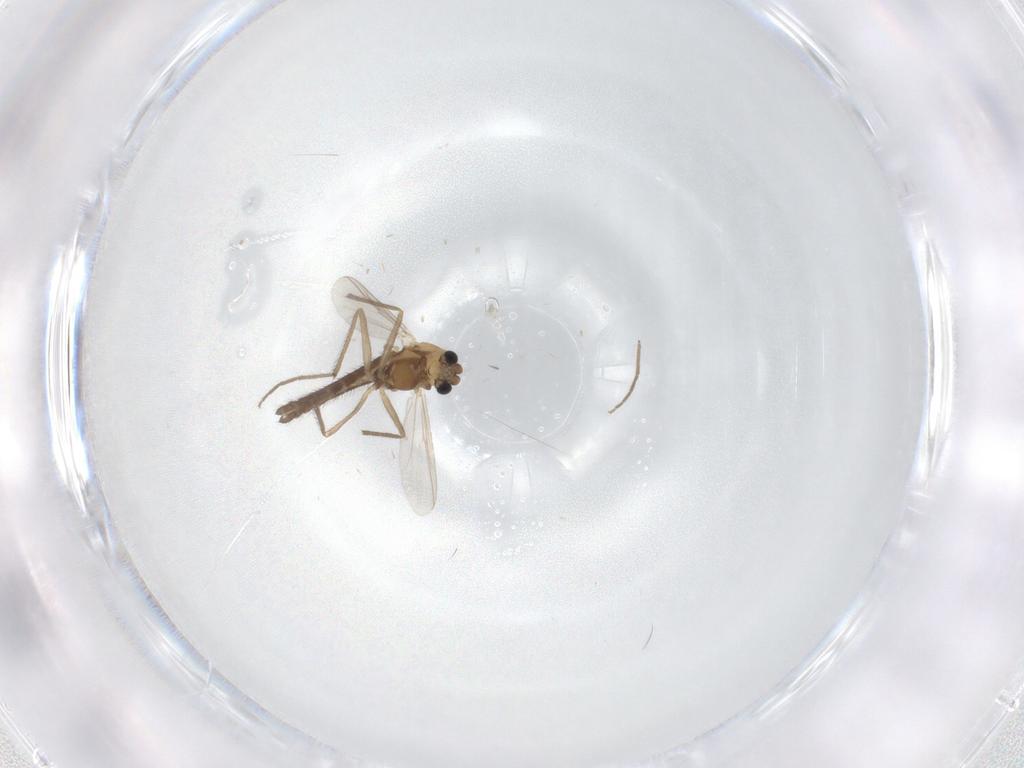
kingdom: Animalia
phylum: Arthropoda
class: Insecta
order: Diptera
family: Chironomidae
